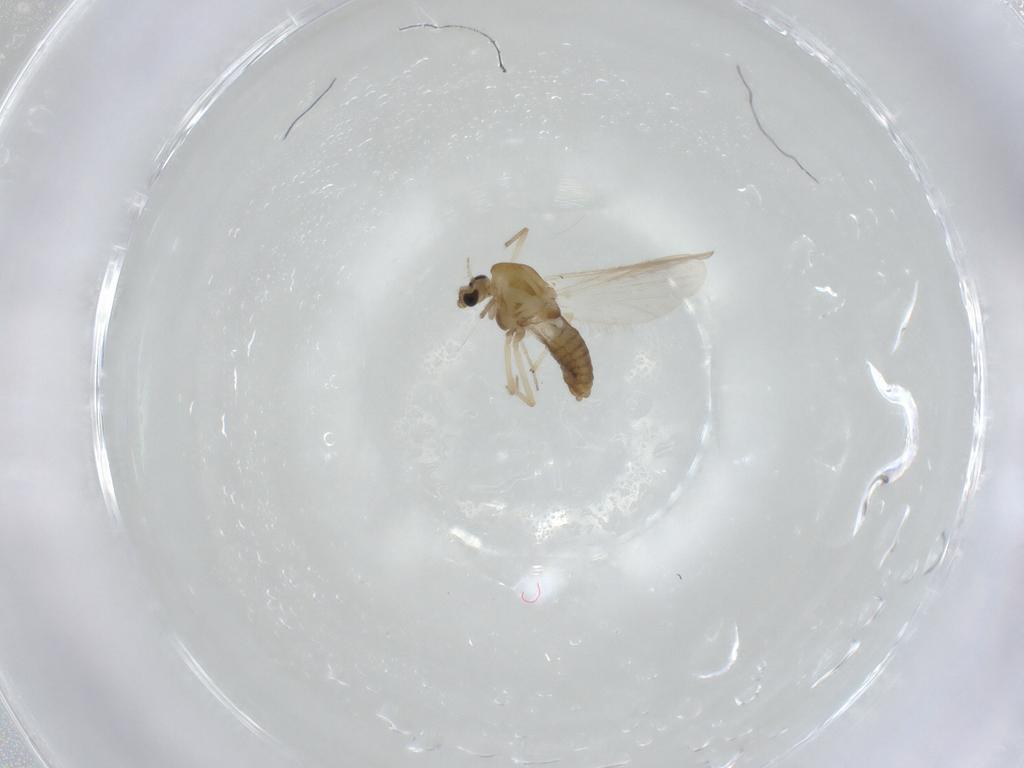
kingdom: Animalia
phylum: Arthropoda
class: Insecta
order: Diptera
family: Ceratopogonidae
